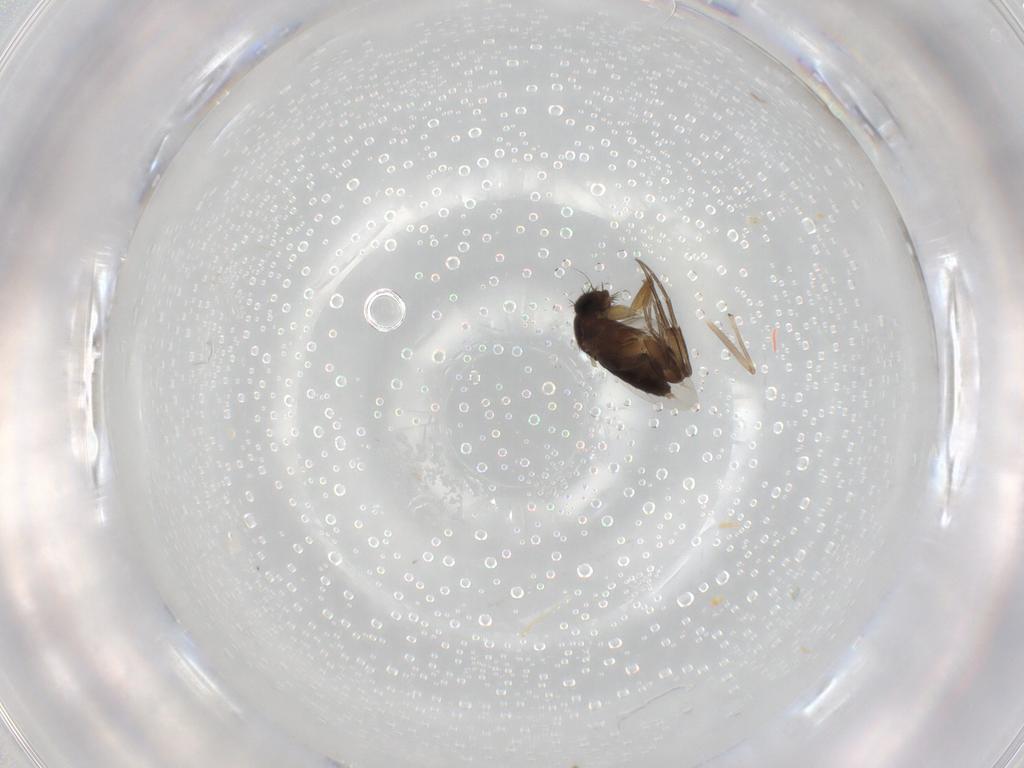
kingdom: Animalia
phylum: Arthropoda
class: Insecta
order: Diptera
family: Phoridae
